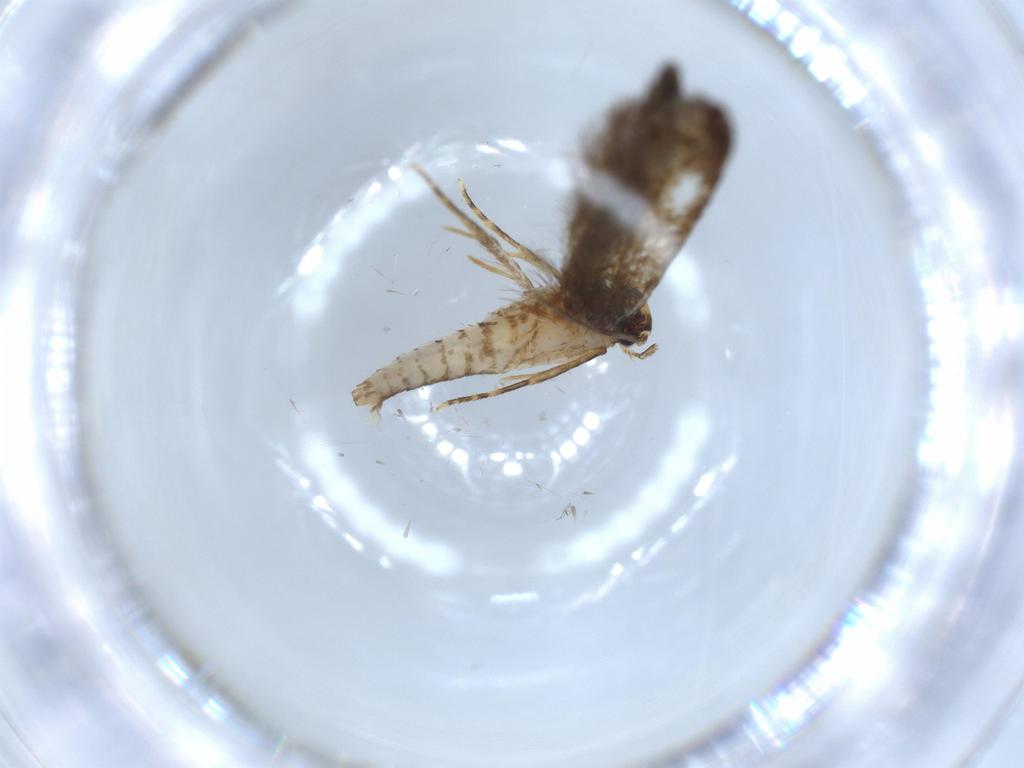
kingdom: Animalia
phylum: Arthropoda
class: Insecta
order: Lepidoptera
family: Tineidae
